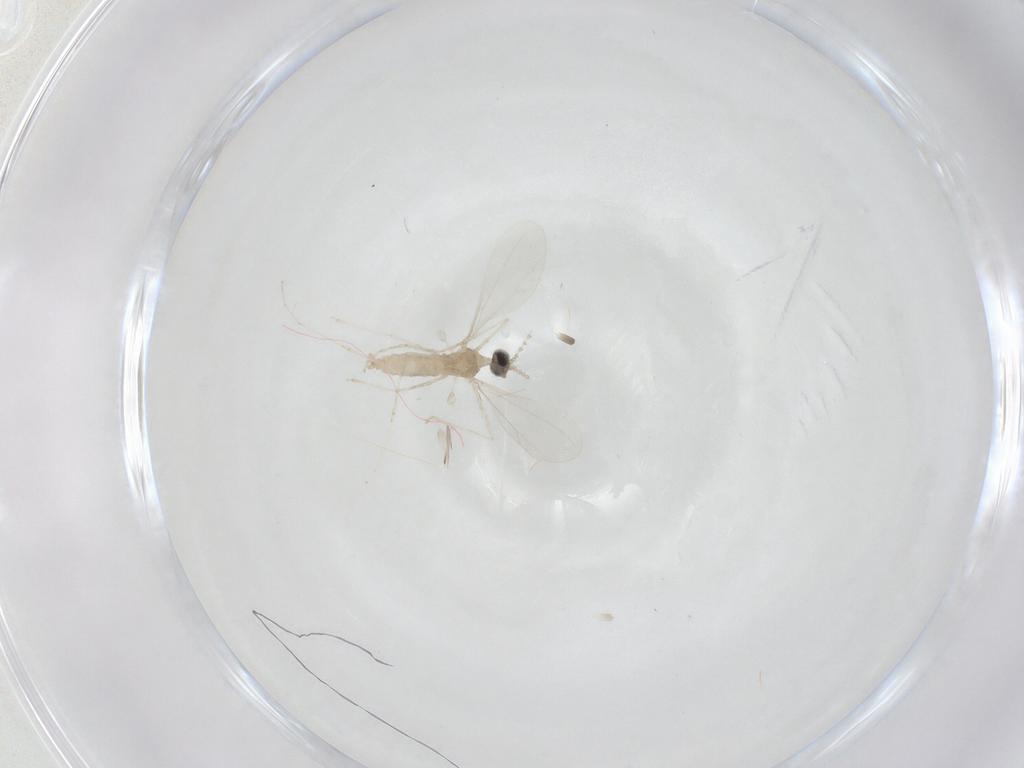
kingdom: Animalia
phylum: Arthropoda
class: Insecta
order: Diptera
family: Cecidomyiidae
